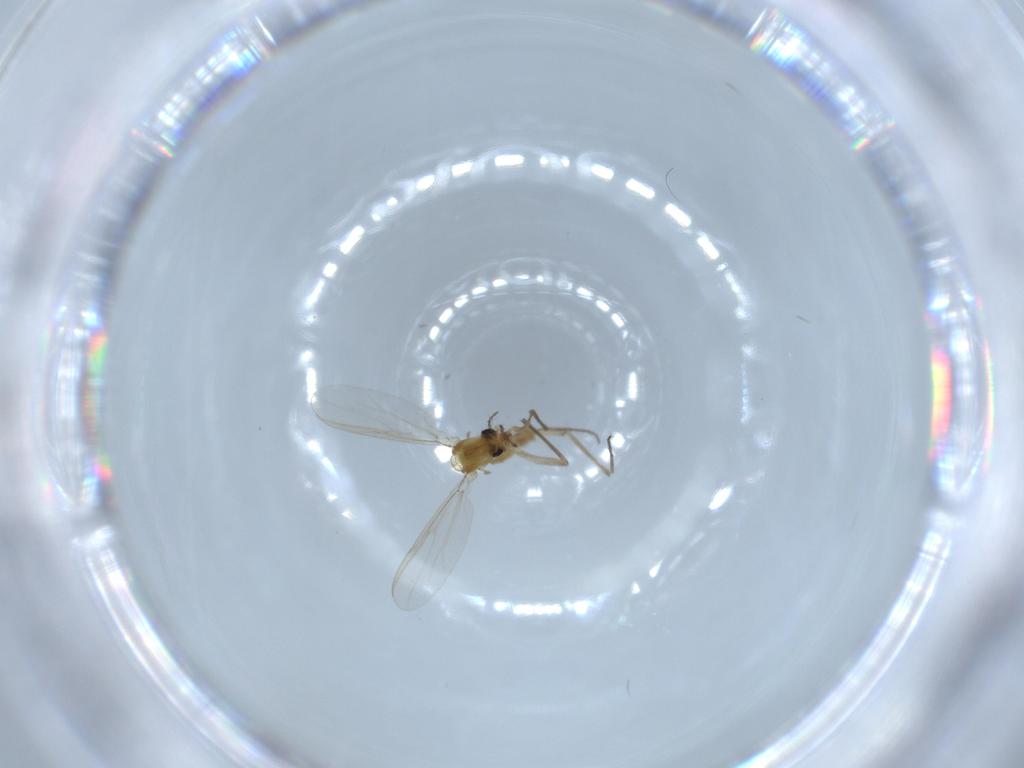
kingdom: Animalia
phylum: Arthropoda
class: Insecta
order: Diptera
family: Chironomidae
